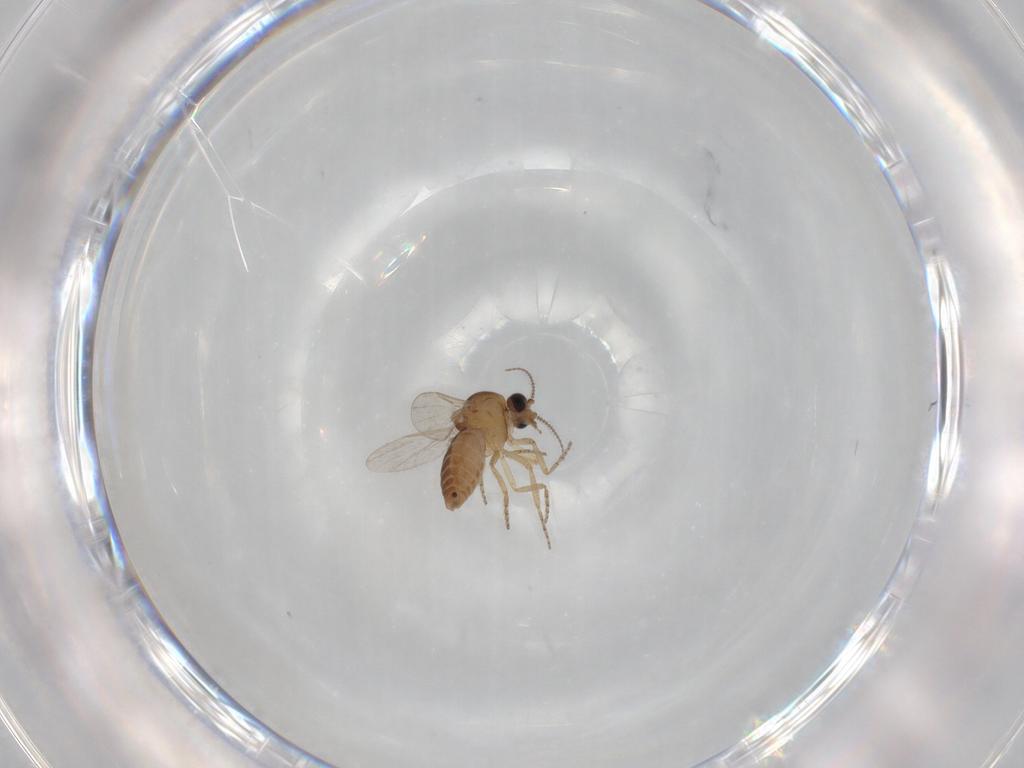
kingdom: Animalia
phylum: Arthropoda
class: Insecta
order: Diptera
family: Ceratopogonidae
